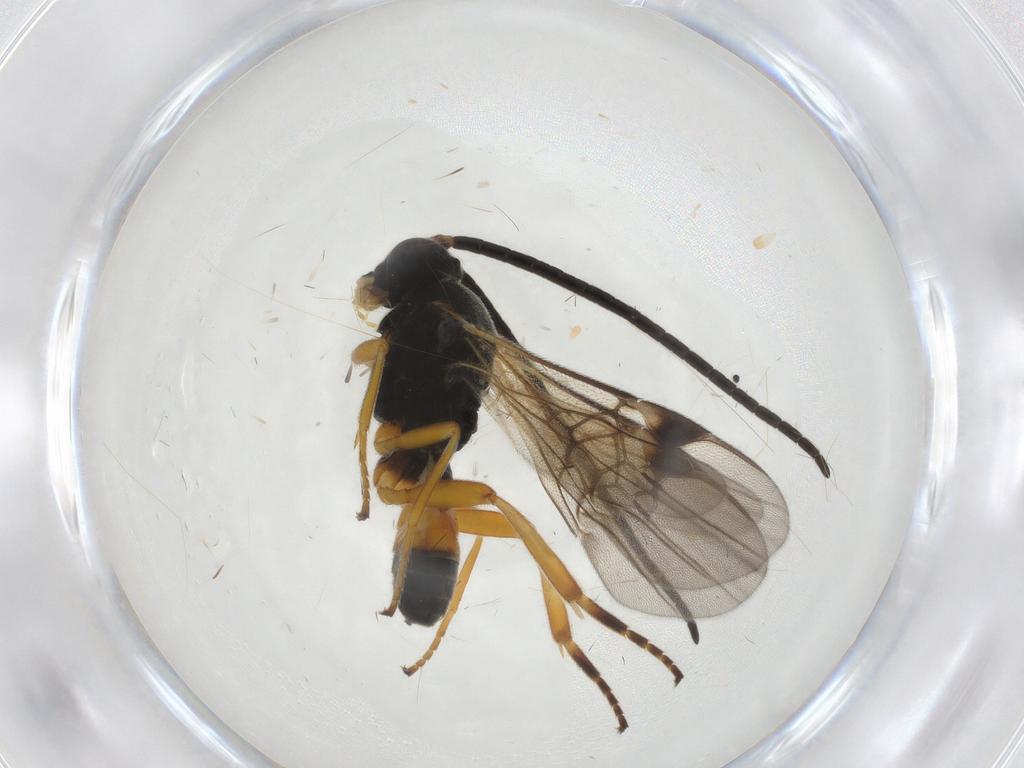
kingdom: Animalia
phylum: Arthropoda
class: Insecta
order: Hymenoptera
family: Braconidae
